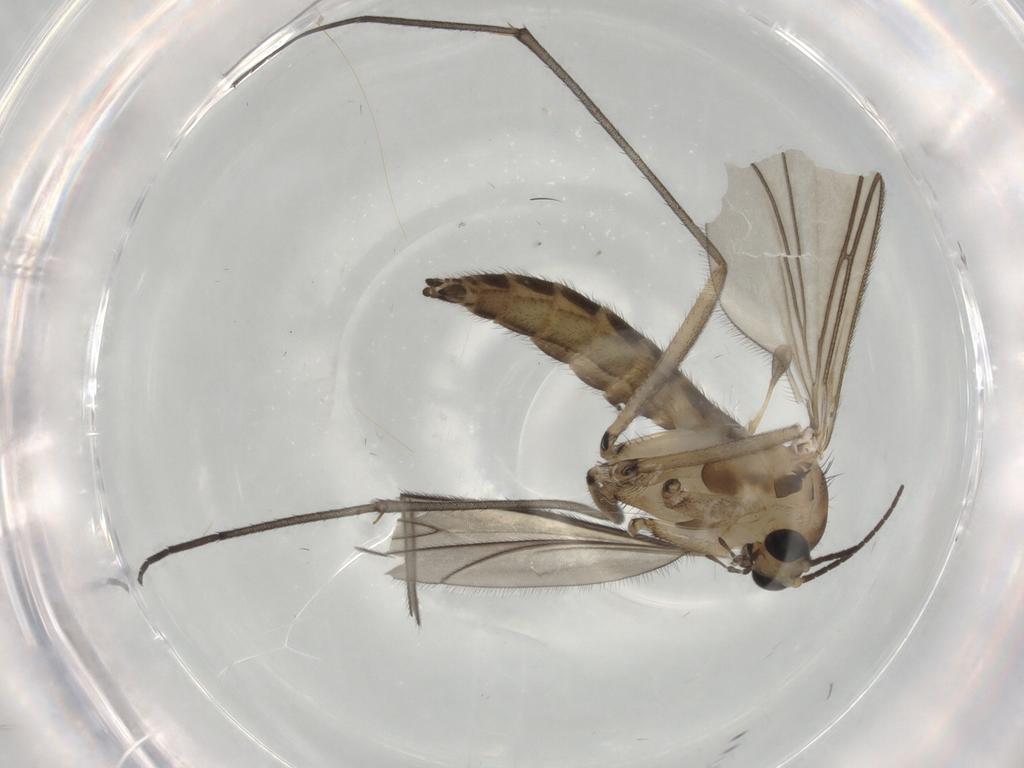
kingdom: Animalia
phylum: Arthropoda
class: Insecta
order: Diptera
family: Sciaridae
